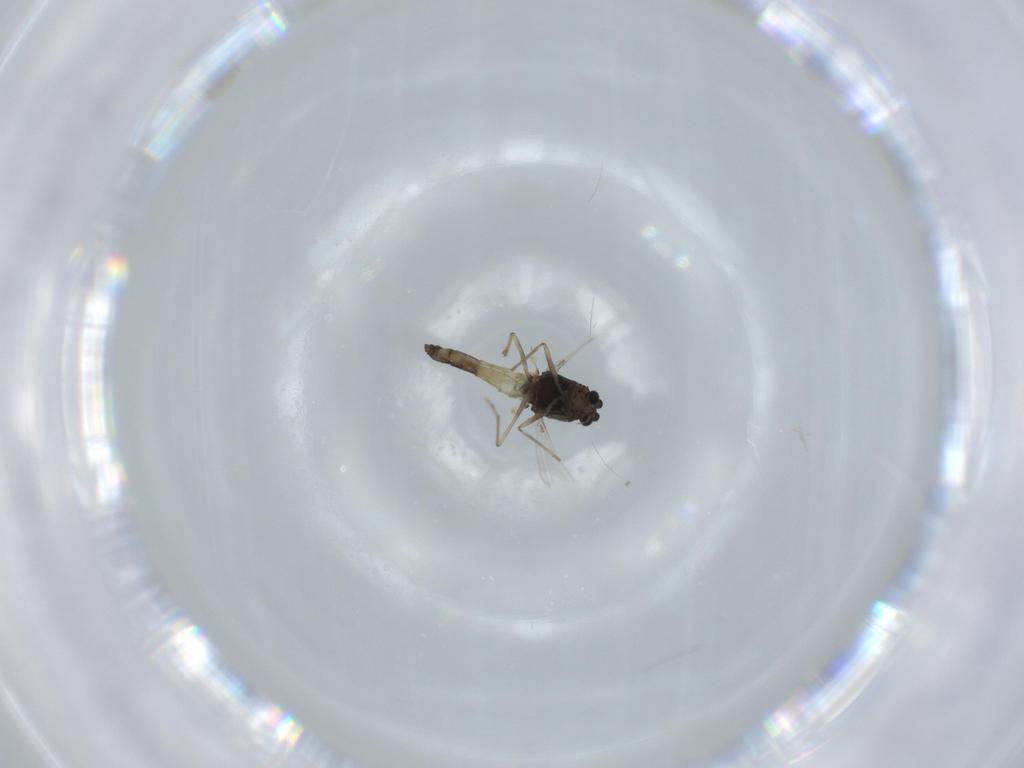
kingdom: Animalia
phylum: Arthropoda
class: Insecta
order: Diptera
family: Chironomidae
